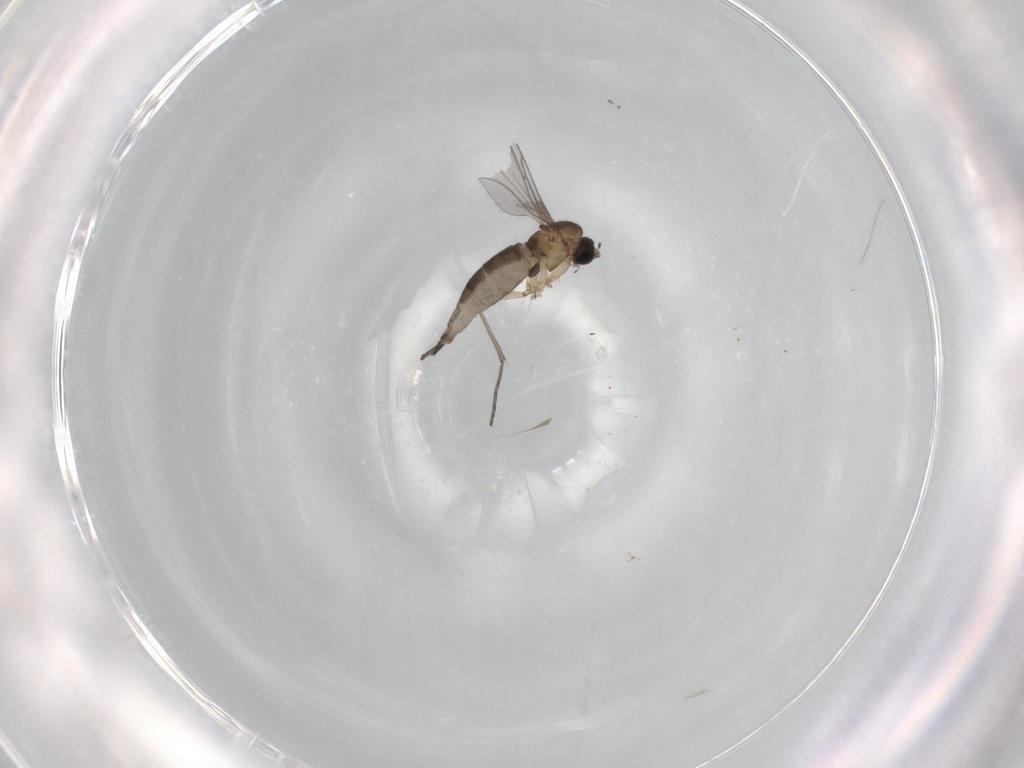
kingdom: Animalia
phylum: Arthropoda
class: Insecta
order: Diptera
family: Sciaridae
